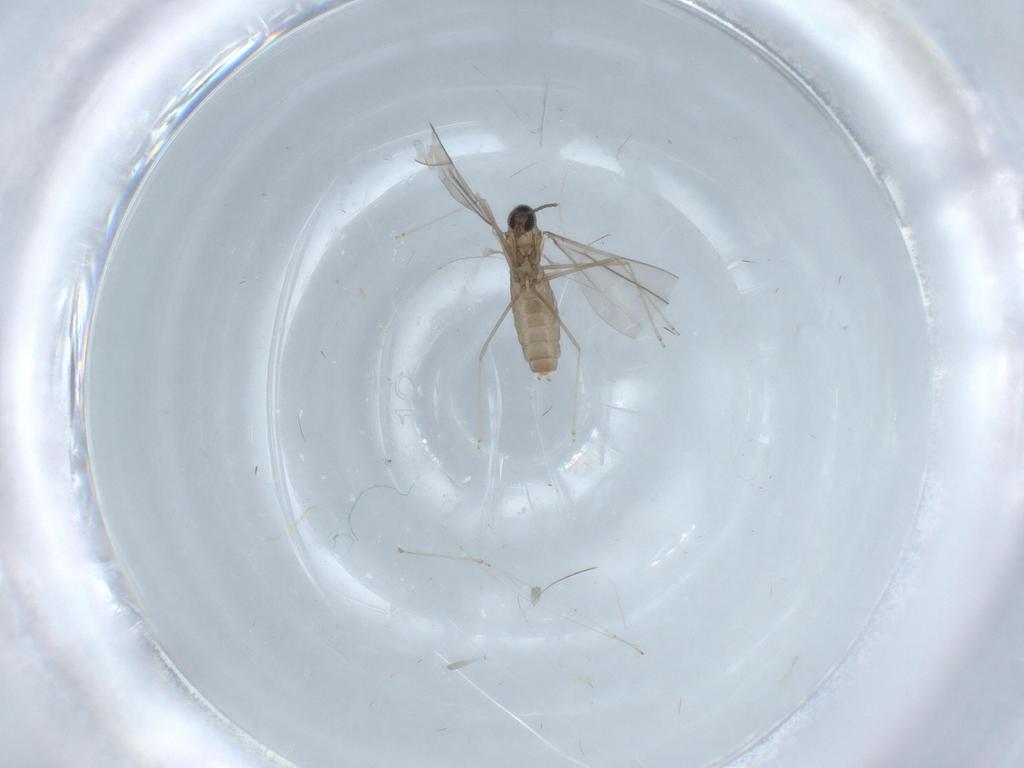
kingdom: Animalia
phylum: Arthropoda
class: Insecta
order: Diptera
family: Cecidomyiidae
